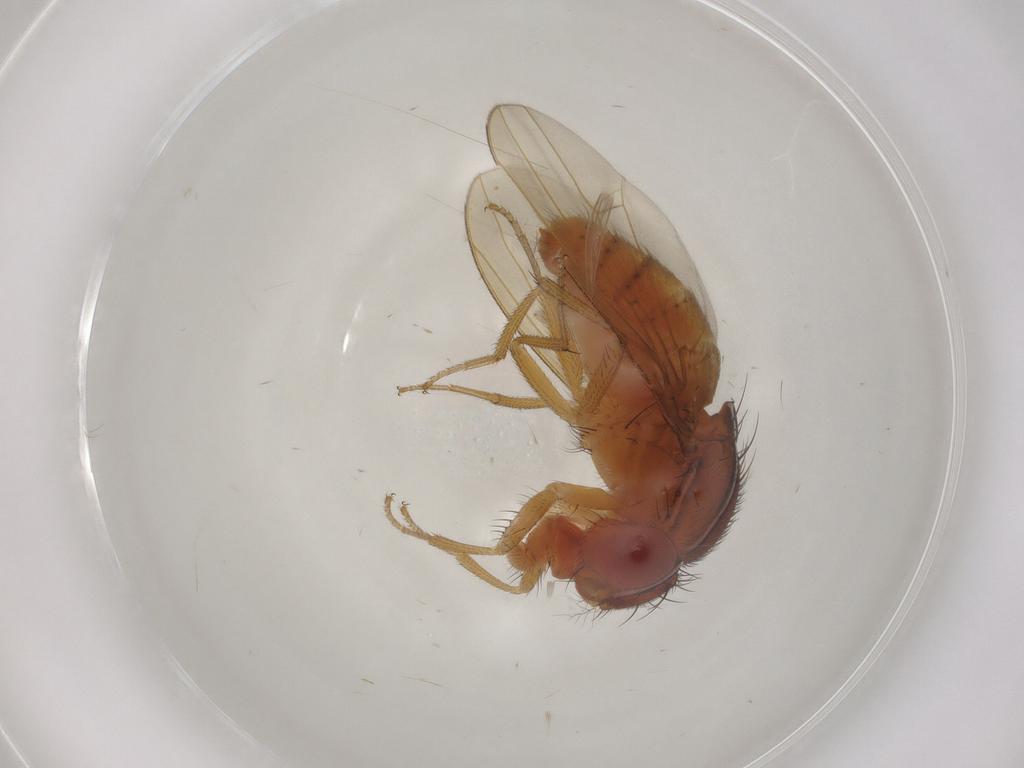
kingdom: Animalia
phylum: Arthropoda
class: Insecta
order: Diptera
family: Drosophilidae
